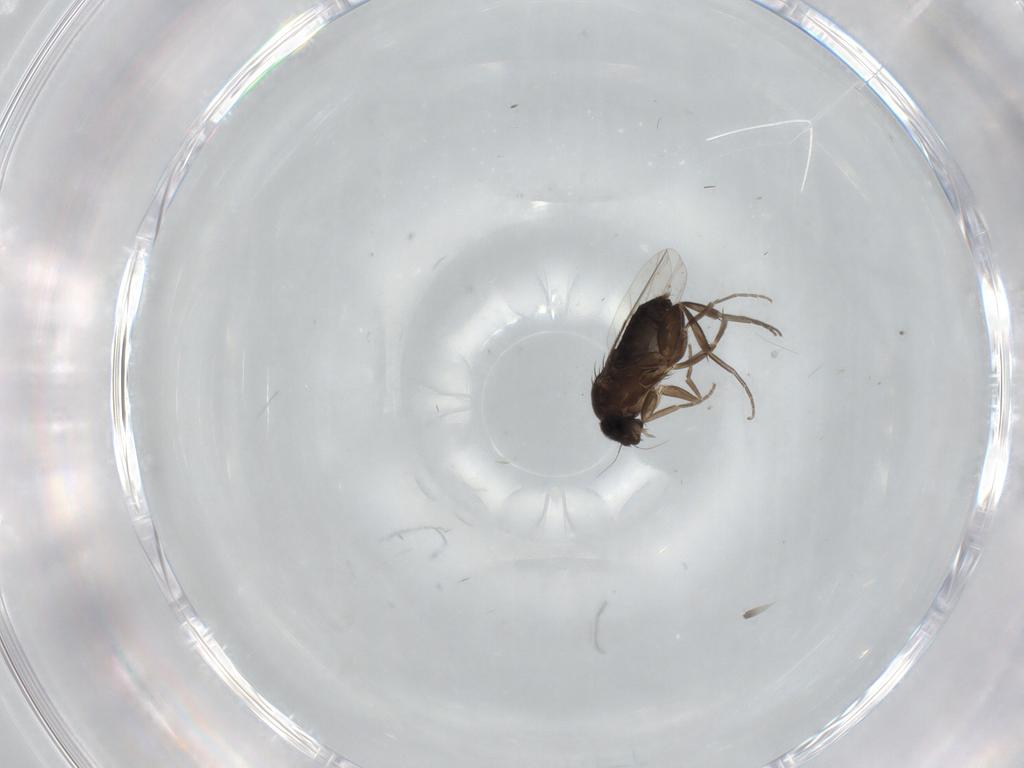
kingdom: Animalia
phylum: Arthropoda
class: Insecta
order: Diptera
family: Phoridae
